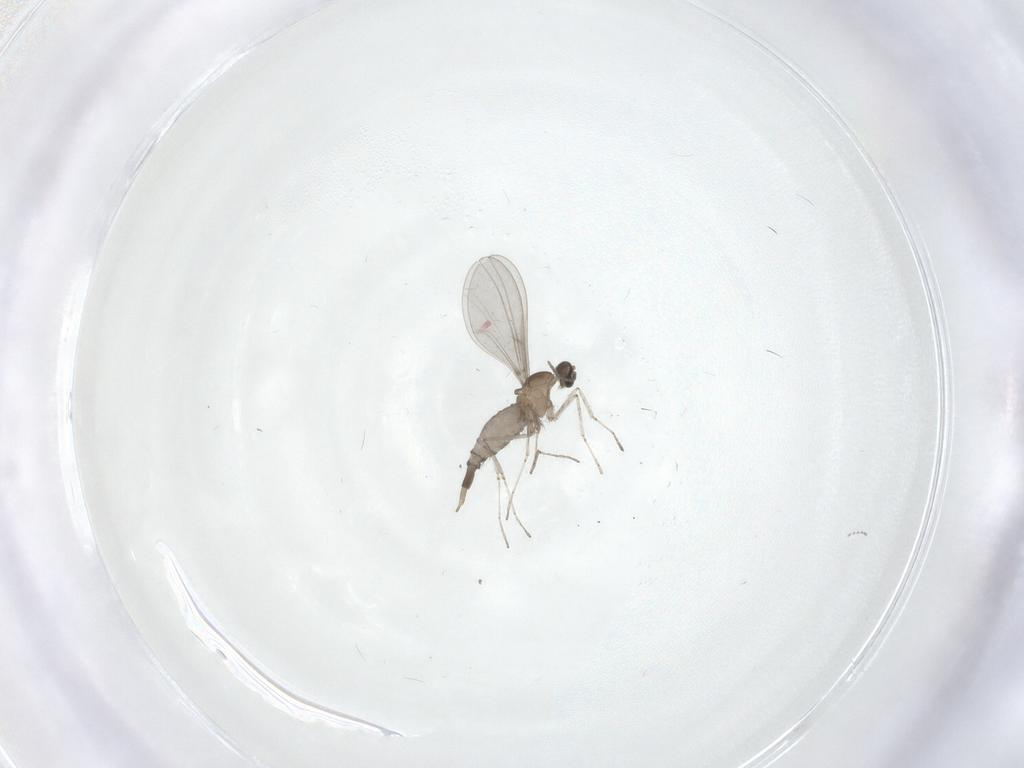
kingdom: Animalia
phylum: Arthropoda
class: Insecta
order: Diptera
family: Cecidomyiidae
